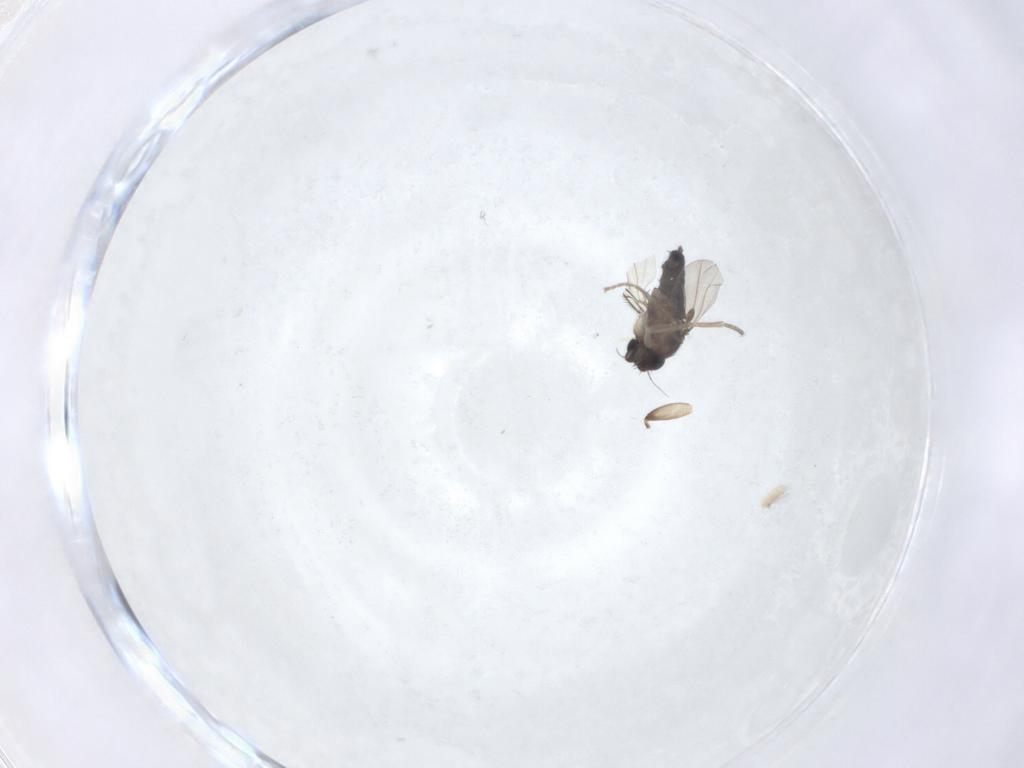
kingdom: Animalia
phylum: Arthropoda
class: Insecta
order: Diptera
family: Phoridae
